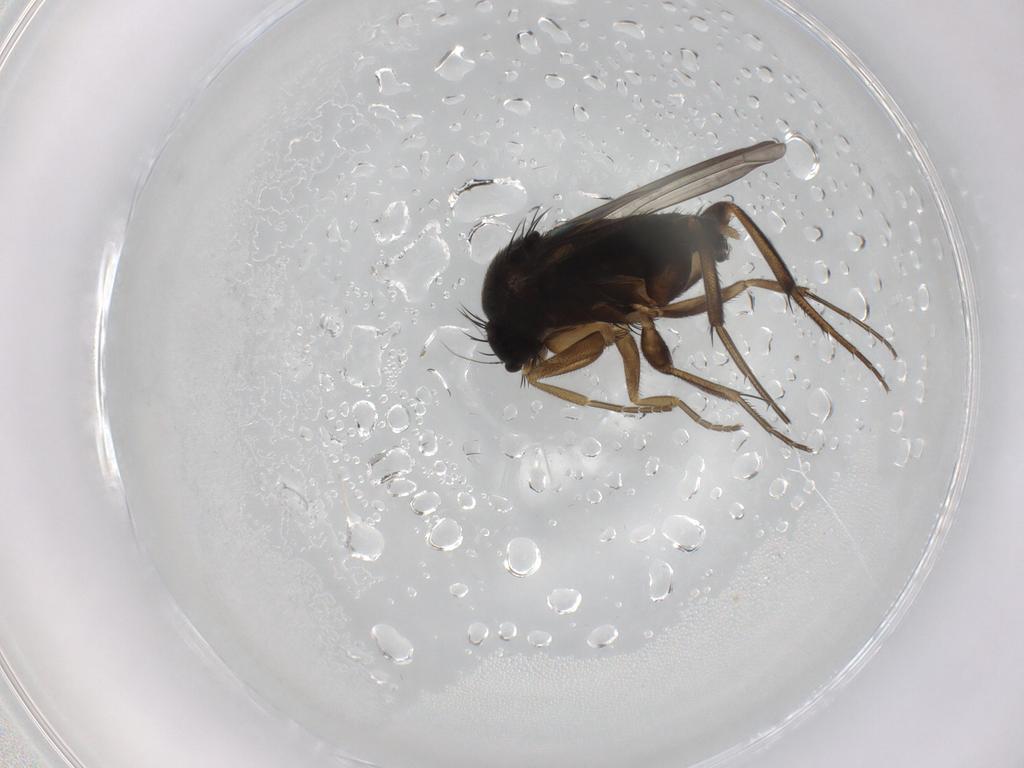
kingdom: Animalia
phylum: Arthropoda
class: Insecta
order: Diptera
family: Phoridae
